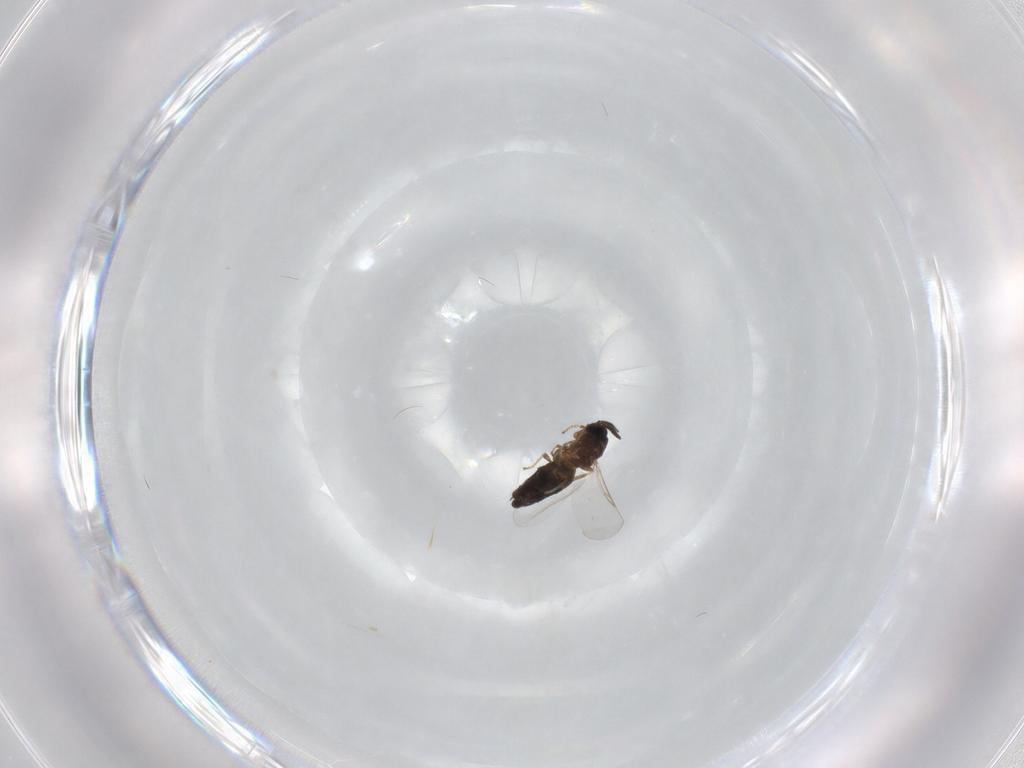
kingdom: Animalia
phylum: Arthropoda
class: Insecta
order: Diptera
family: Scatopsidae
